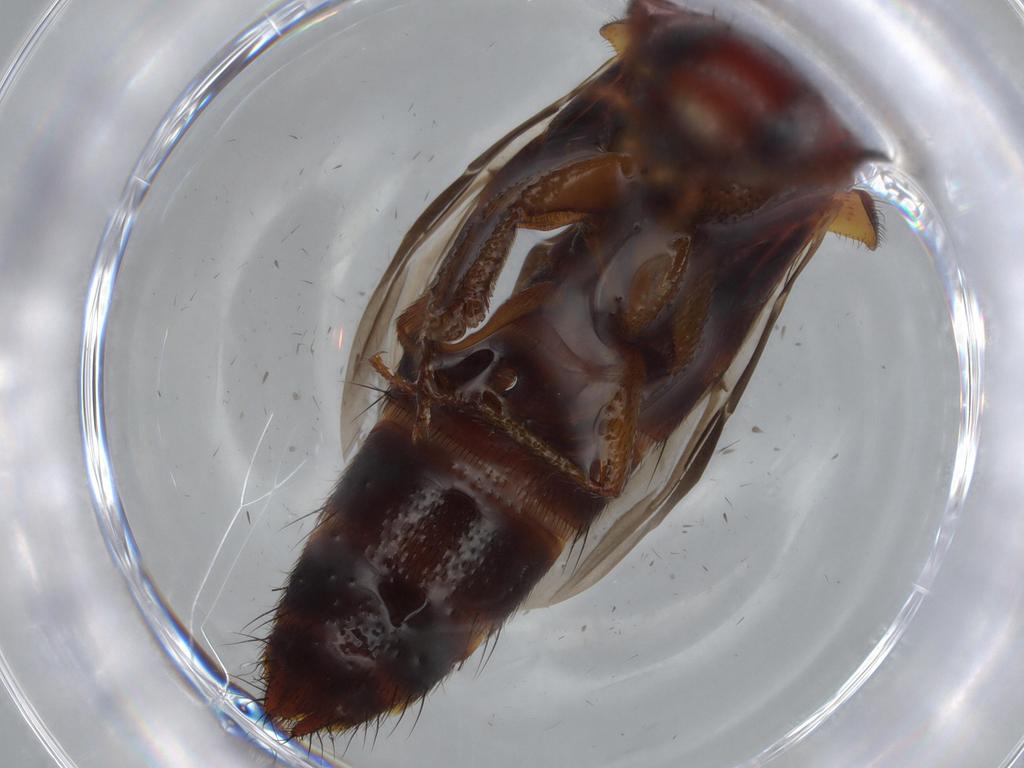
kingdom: Animalia
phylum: Arthropoda
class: Insecta
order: Coleoptera
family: Staphylinidae
